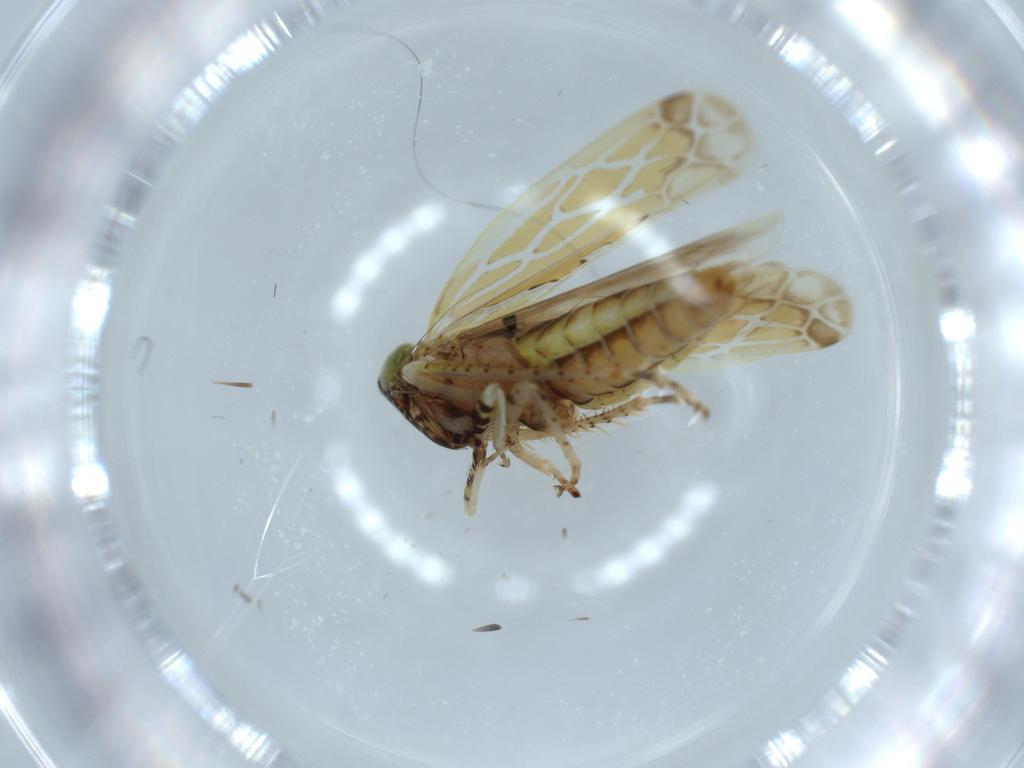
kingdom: Animalia
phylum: Arthropoda
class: Insecta
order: Hemiptera
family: Cicadellidae
